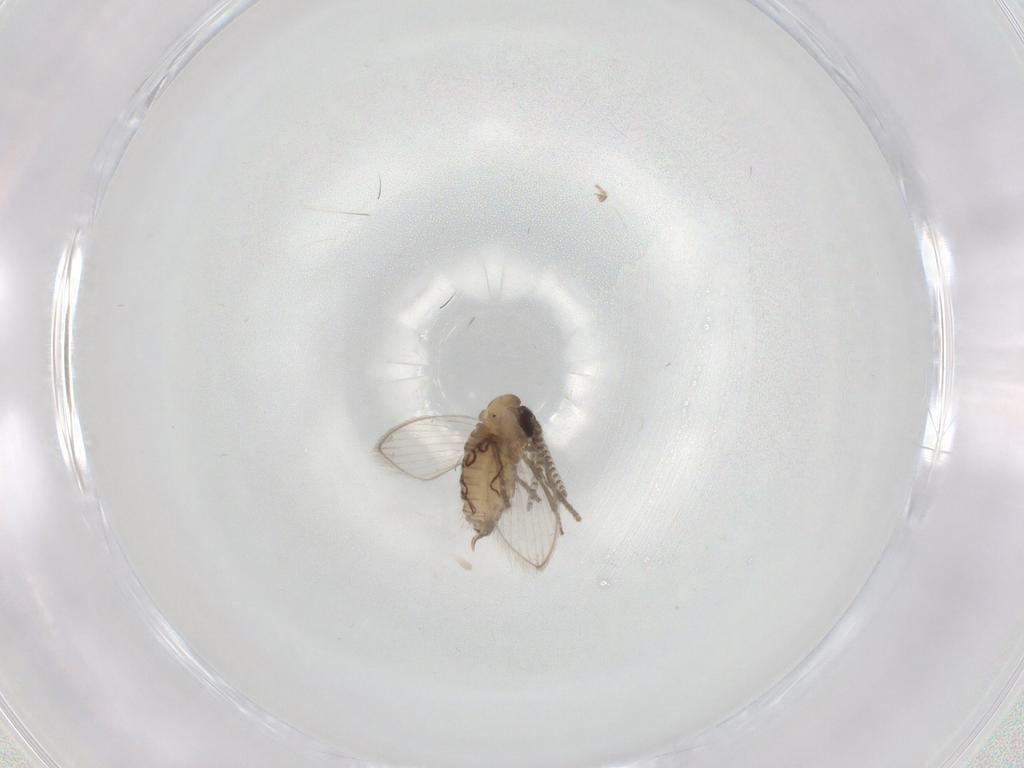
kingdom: Animalia
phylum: Arthropoda
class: Insecta
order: Diptera
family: Psychodidae
